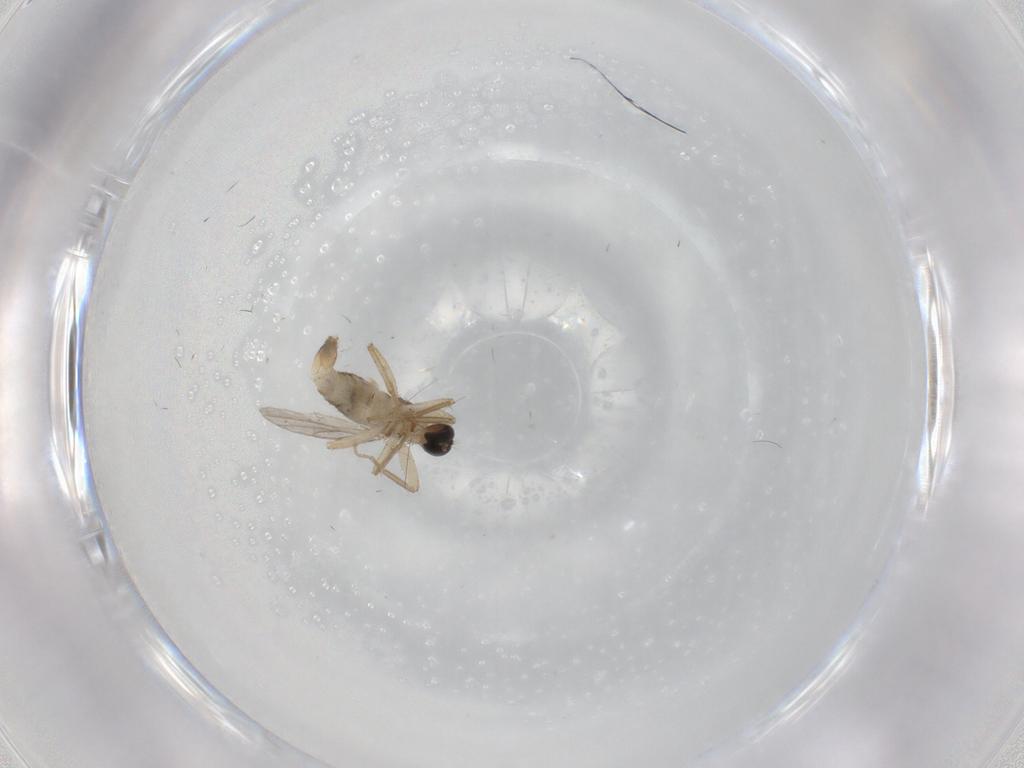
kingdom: Animalia
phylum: Arthropoda
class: Insecta
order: Diptera
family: Hybotidae
